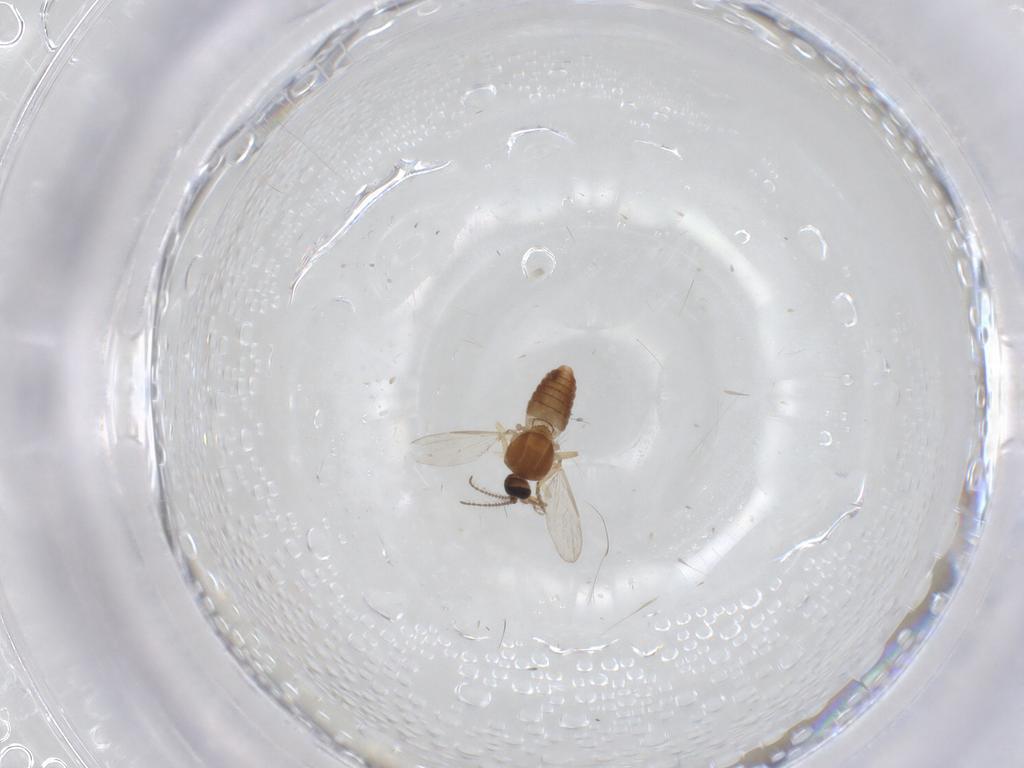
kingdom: Animalia
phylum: Arthropoda
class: Insecta
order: Diptera
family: Ceratopogonidae
